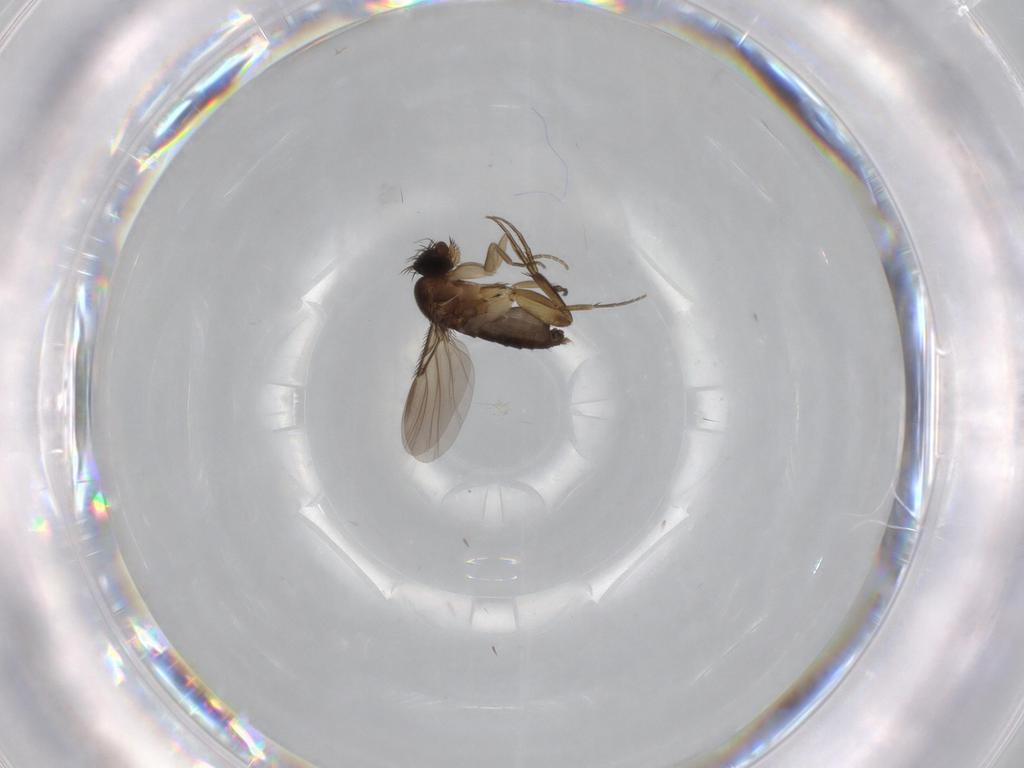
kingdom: Animalia
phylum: Arthropoda
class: Insecta
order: Diptera
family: Phoridae
